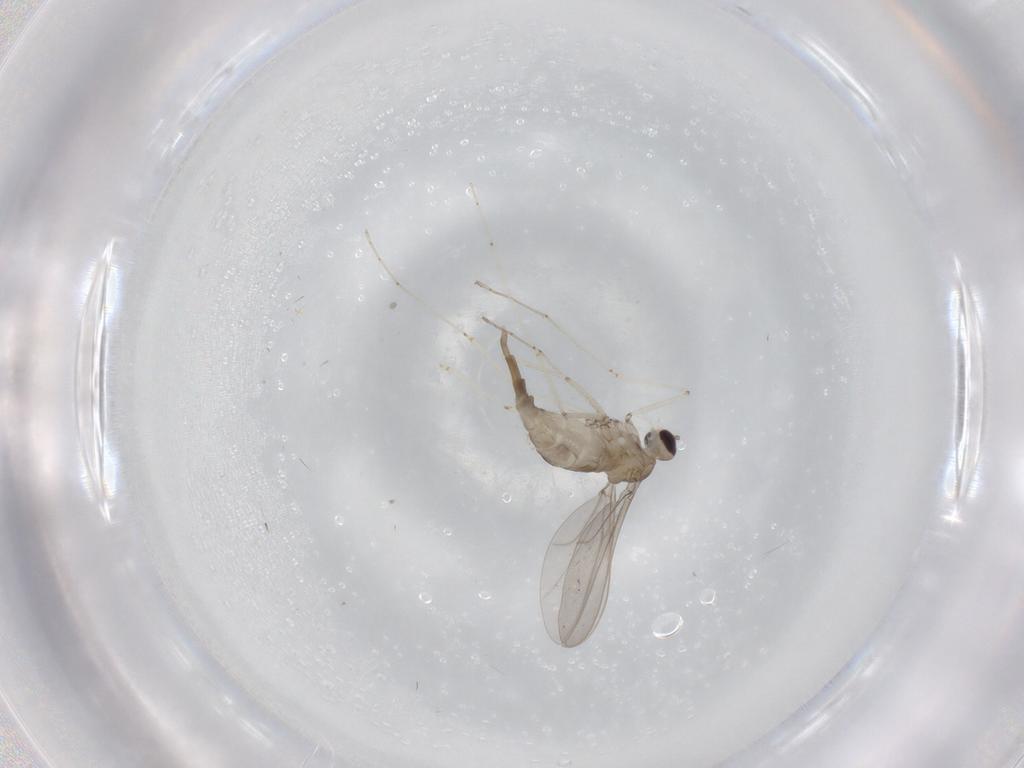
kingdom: Animalia
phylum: Arthropoda
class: Insecta
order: Diptera
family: Cecidomyiidae
